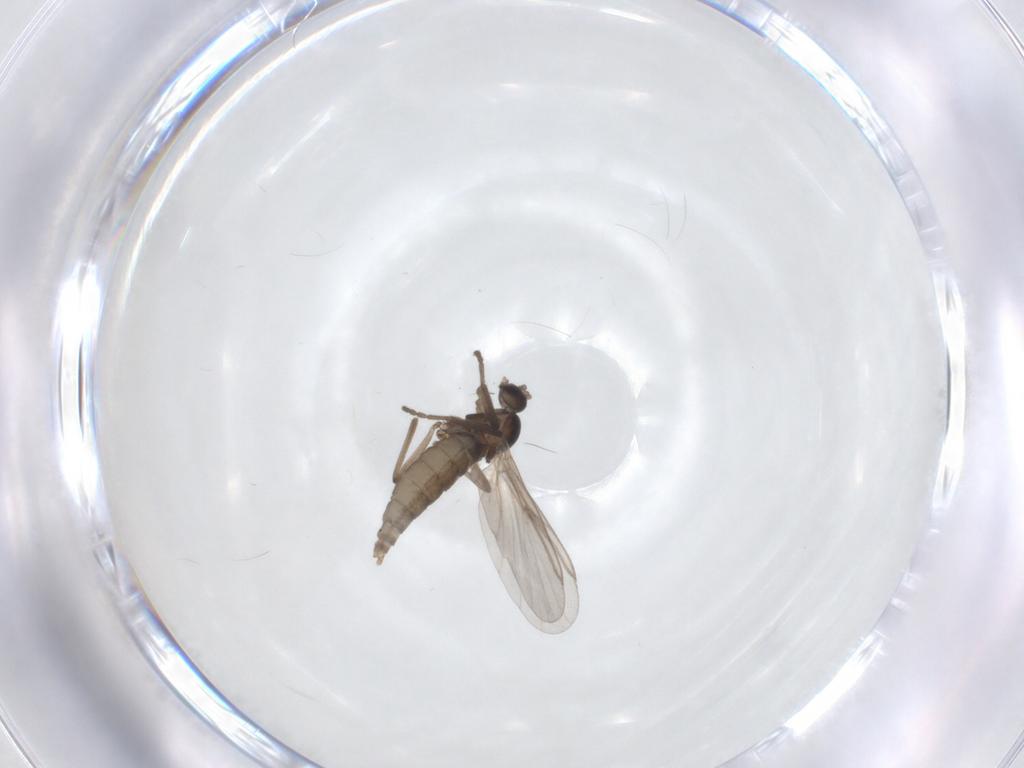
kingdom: Animalia
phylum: Arthropoda
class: Insecta
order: Diptera
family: Cecidomyiidae
